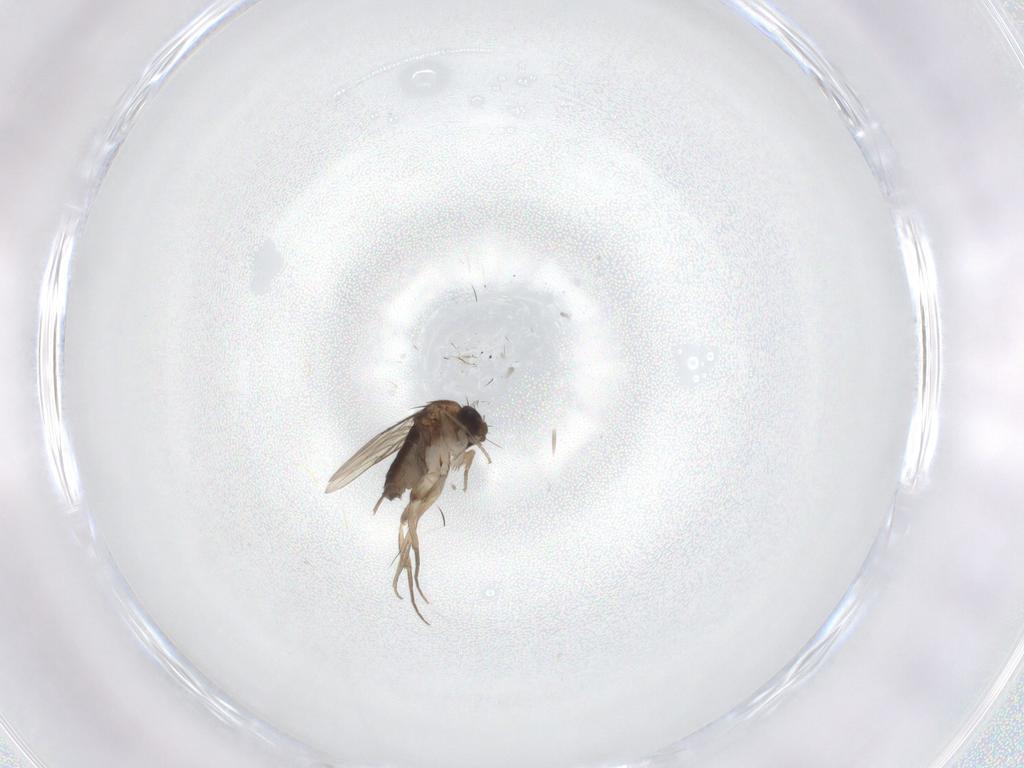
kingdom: Animalia
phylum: Arthropoda
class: Insecta
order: Diptera
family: Phoridae
